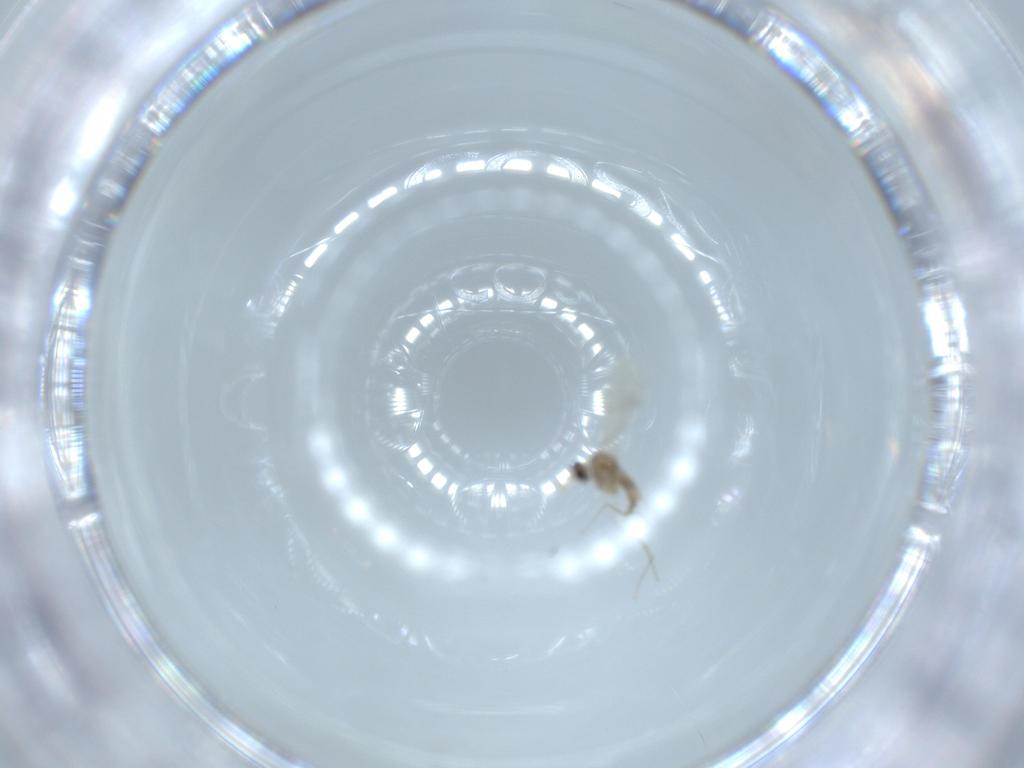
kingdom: Animalia
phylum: Arthropoda
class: Insecta
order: Diptera
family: Cecidomyiidae
